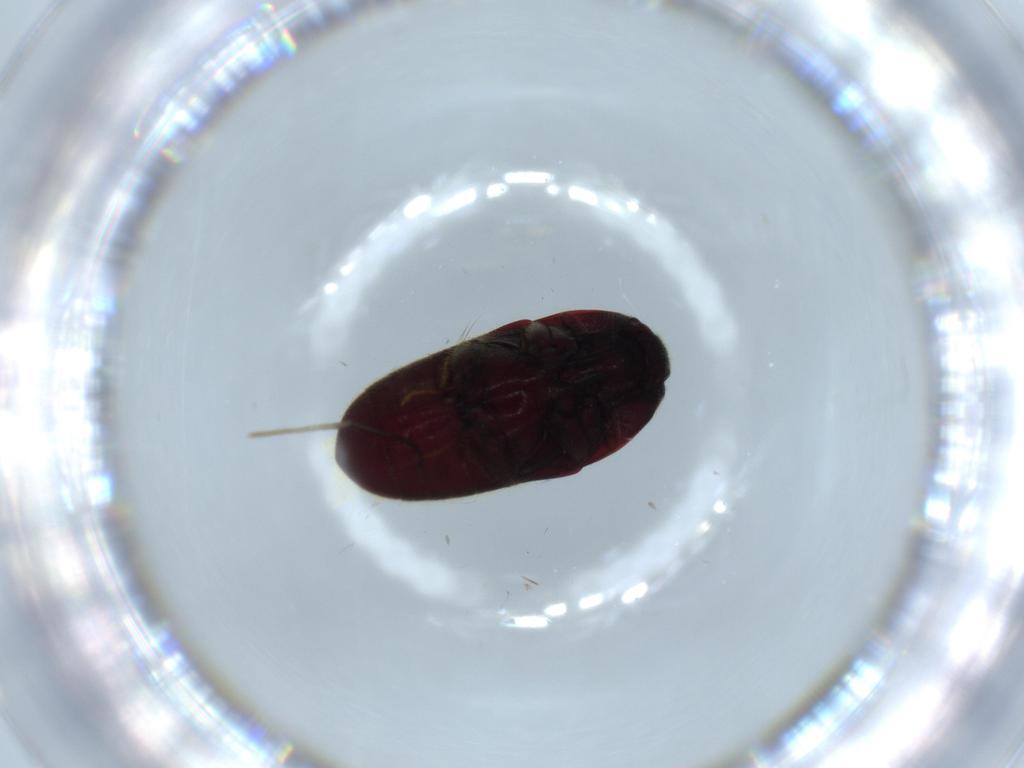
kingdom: Animalia
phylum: Arthropoda
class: Insecta
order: Coleoptera
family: Throscidae
